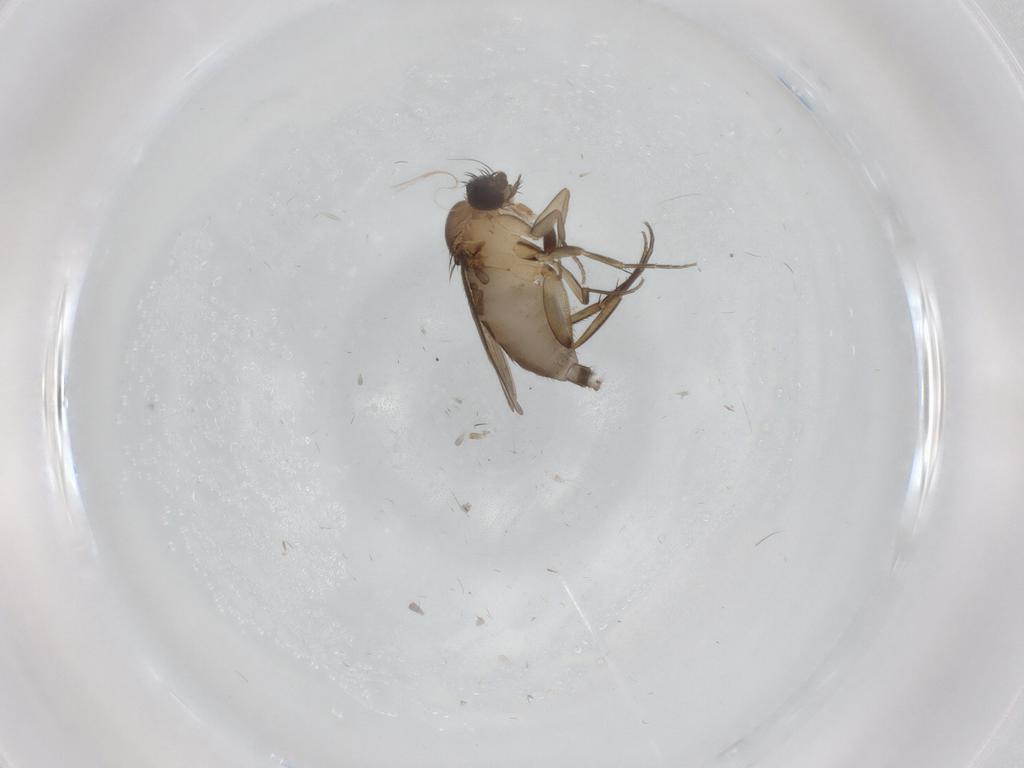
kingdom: Animalia
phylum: Arthropoda
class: Insecta
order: Diptera
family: Phoridae
